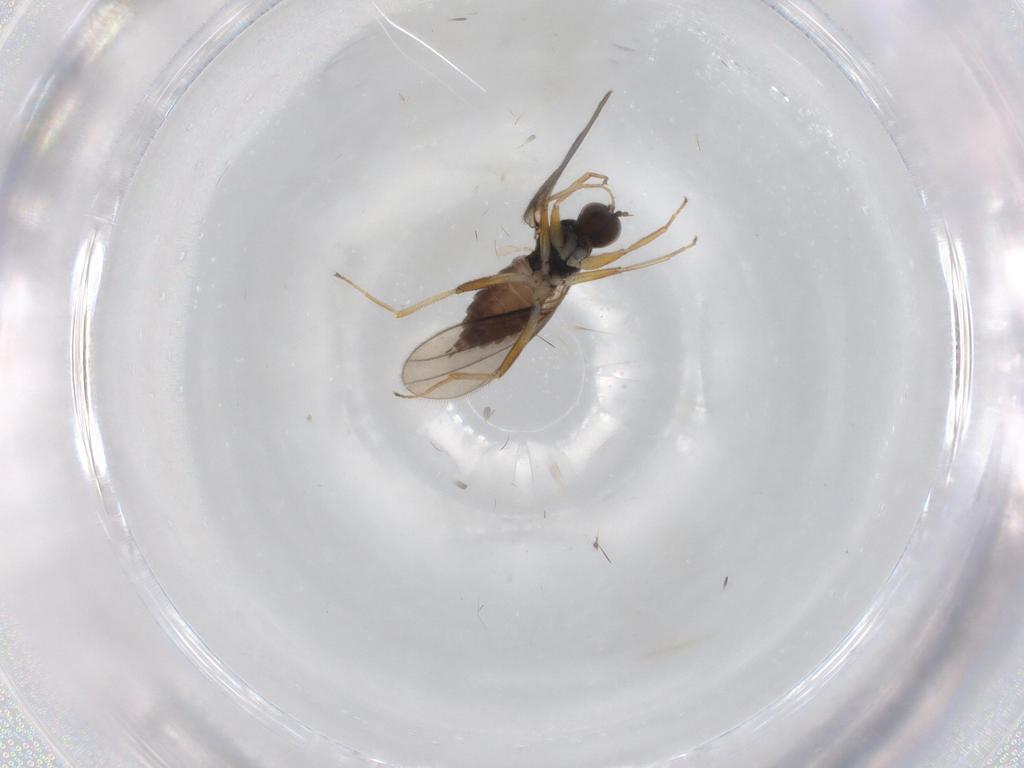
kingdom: Animalia
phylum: Arthropoda
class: Insecta
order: Diptera
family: Hybotidae
